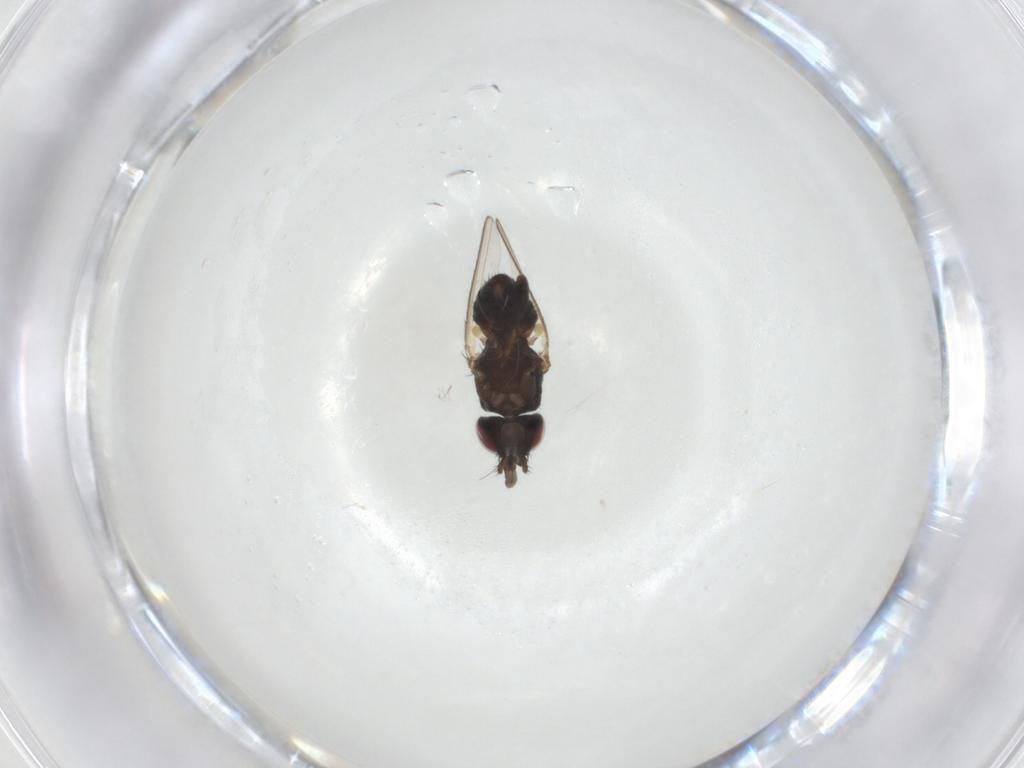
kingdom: Animalia
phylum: Arthropoda
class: Insecta
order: Diptera
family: Milichiidae
